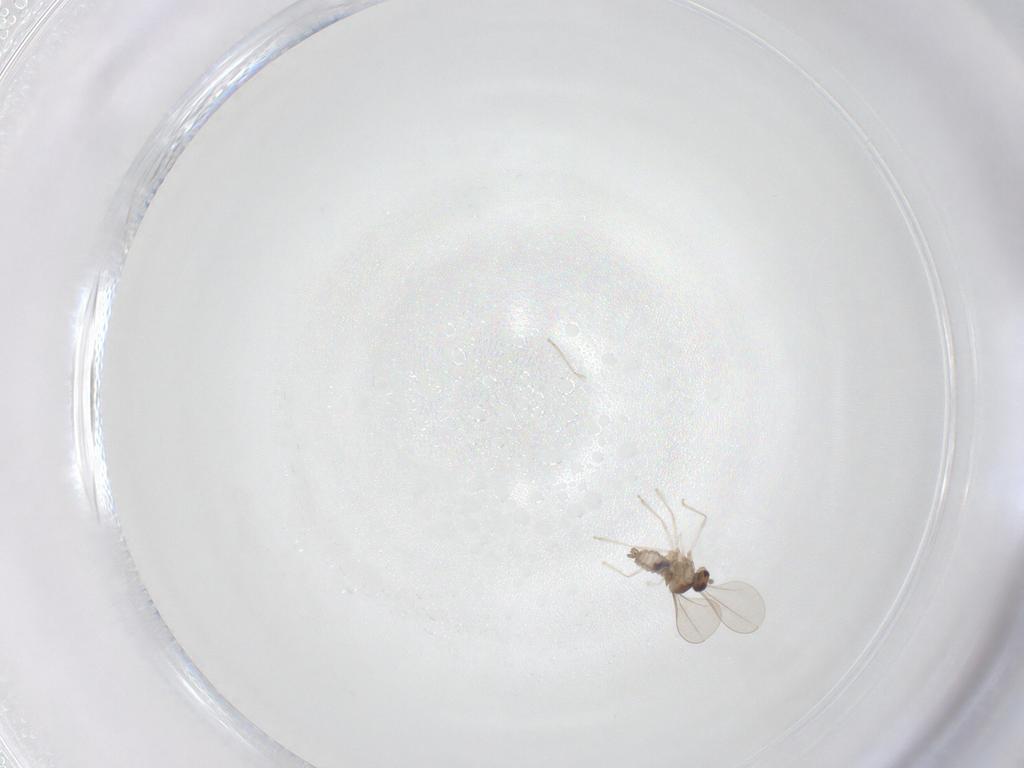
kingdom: Animalia
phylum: Arthropoda
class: Insecta
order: Diptera
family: Cecidomyiidae
